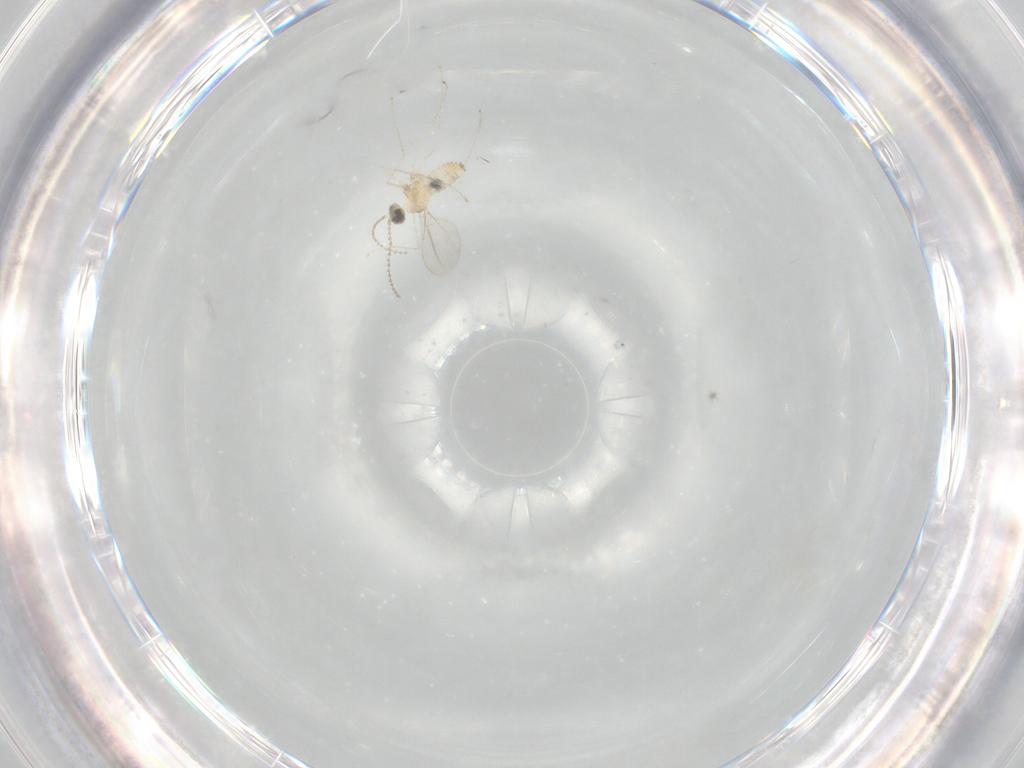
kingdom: Animalia
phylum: Arthropoda
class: Insecta
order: Diptera
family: Cecidomyiidae
